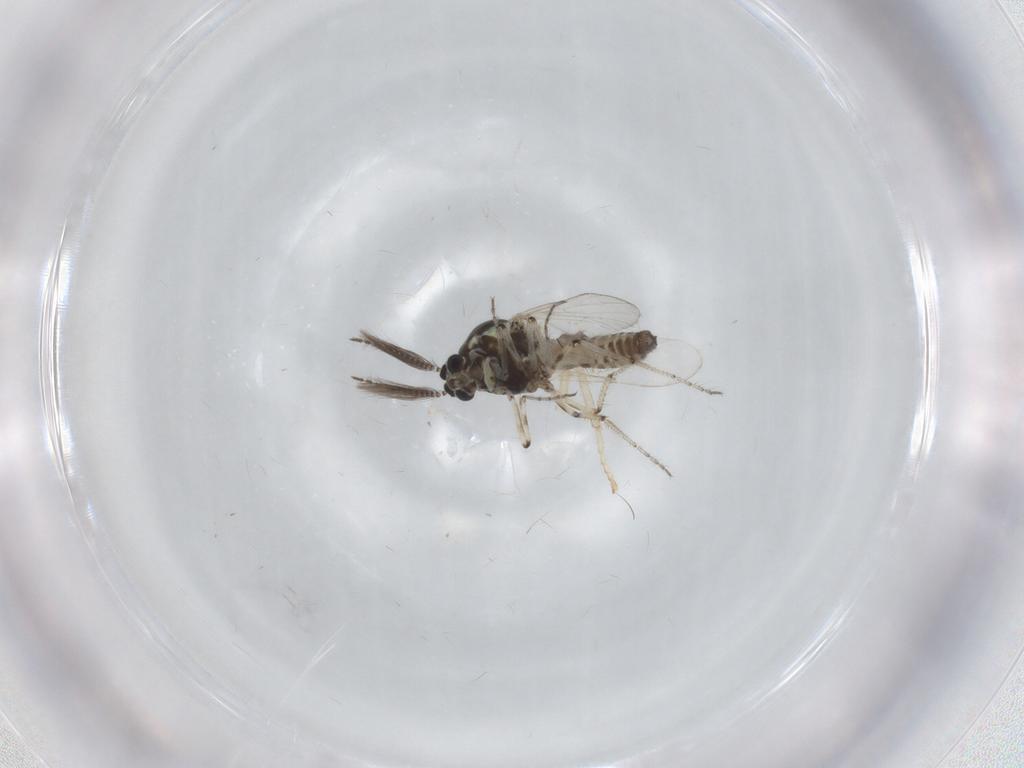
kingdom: Animalia
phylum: Arthropoda
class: Insecta
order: Diptera
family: Ceratopogonidae
